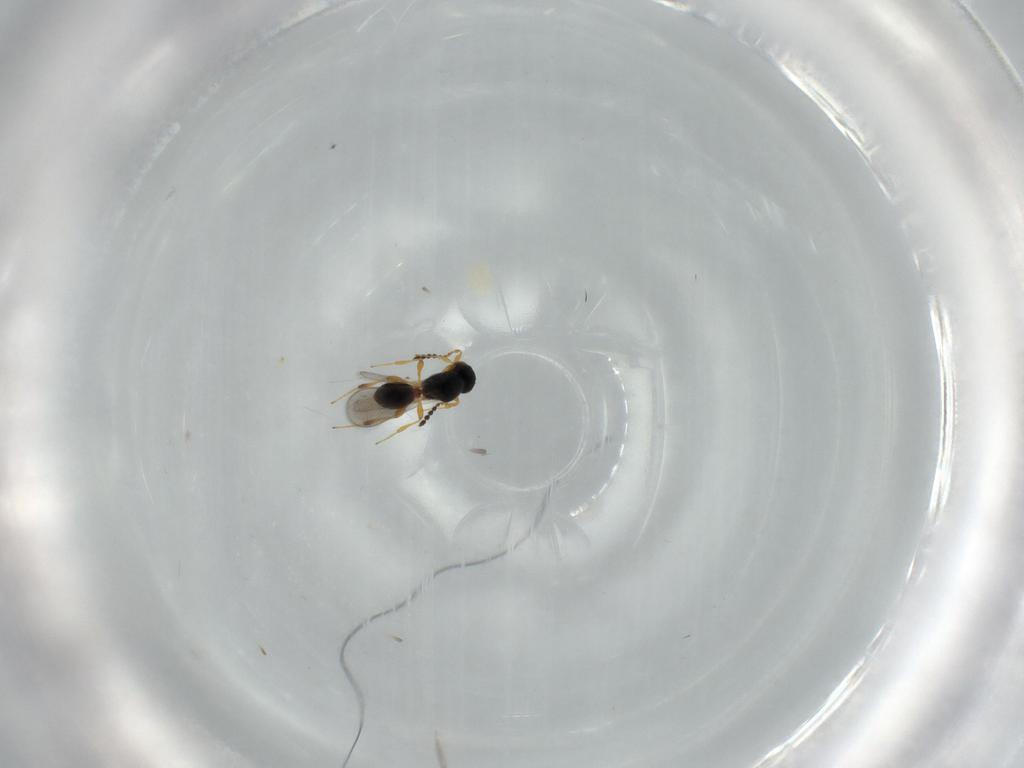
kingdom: Animalia
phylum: Arthropoda
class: Insecta
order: Hymenoptera
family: Platygastridae
